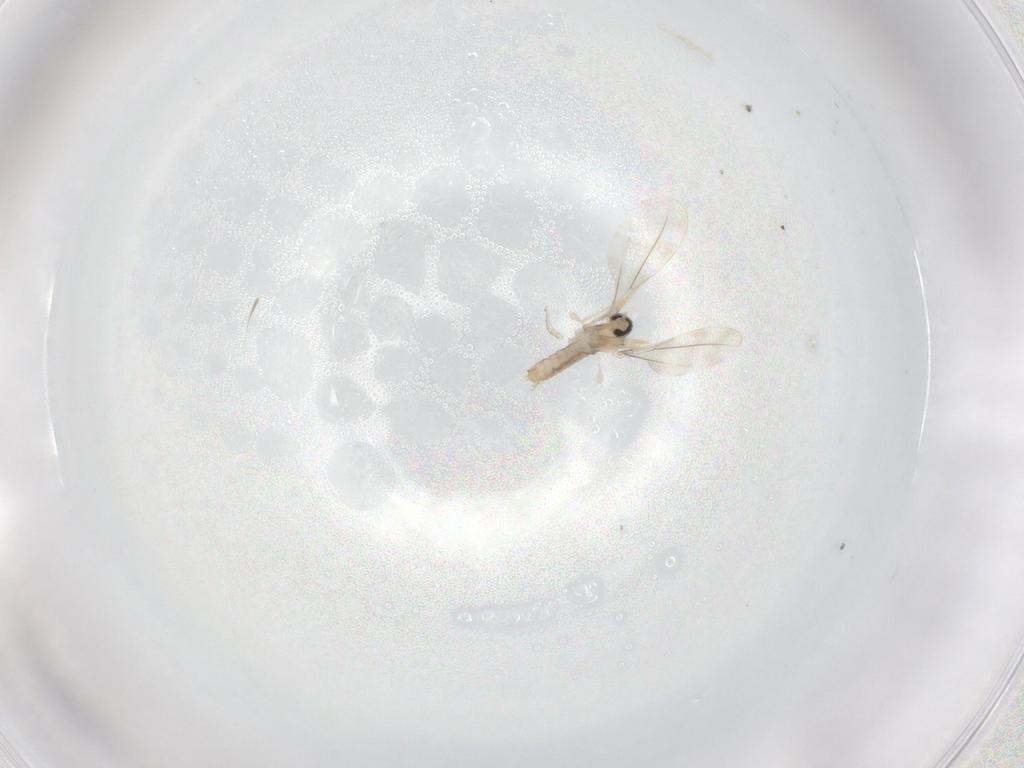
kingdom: Animalia
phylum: Arthropoda
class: Insecta
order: Diptera
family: Cecidomyiidae
